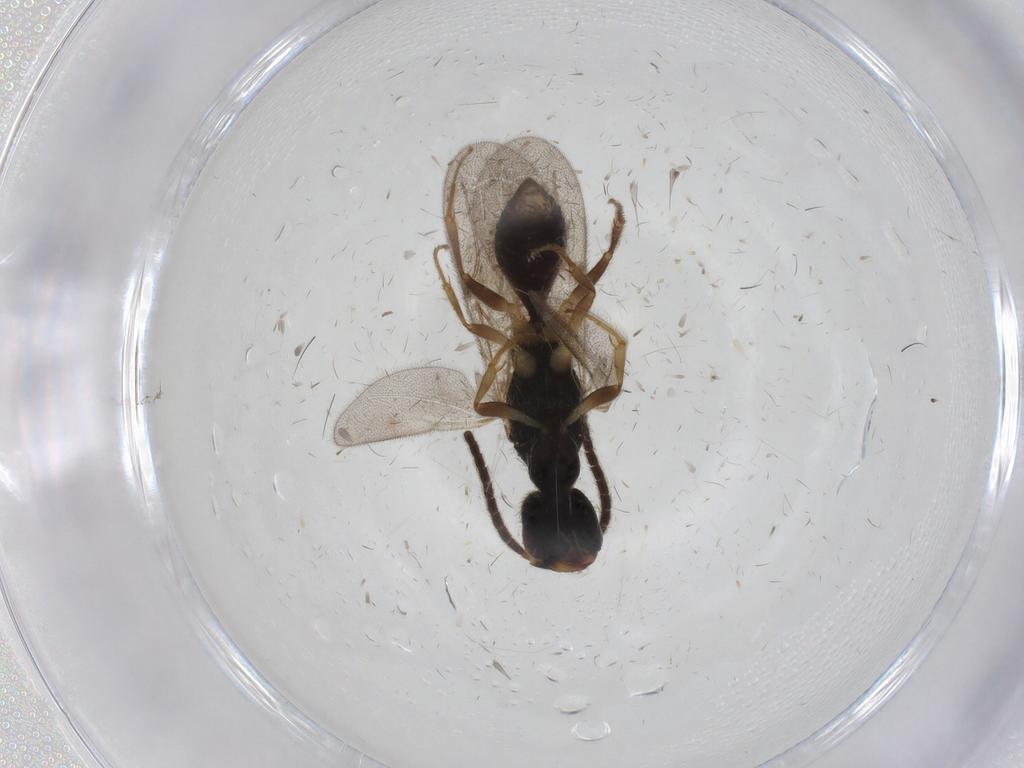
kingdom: Animalia
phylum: Arthropoda
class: Insecta
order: Hymenoptera
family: Bethylidae
